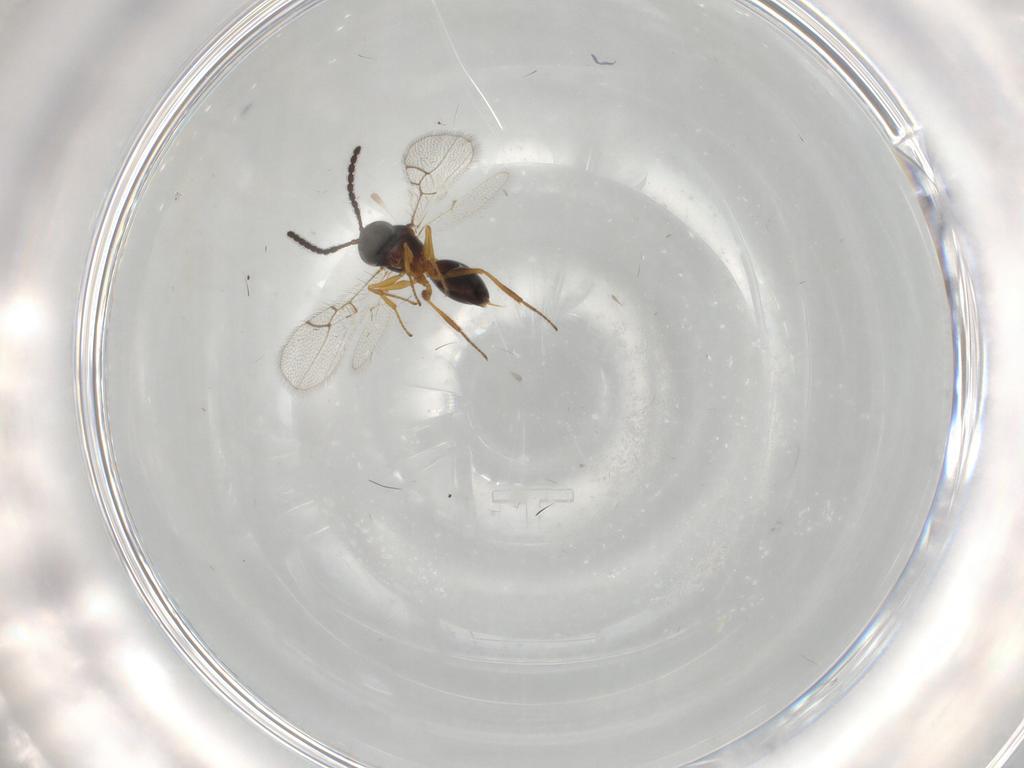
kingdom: Animalia
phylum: Arthropoda
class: Insecta
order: Hymenoptera
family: Figitidae
